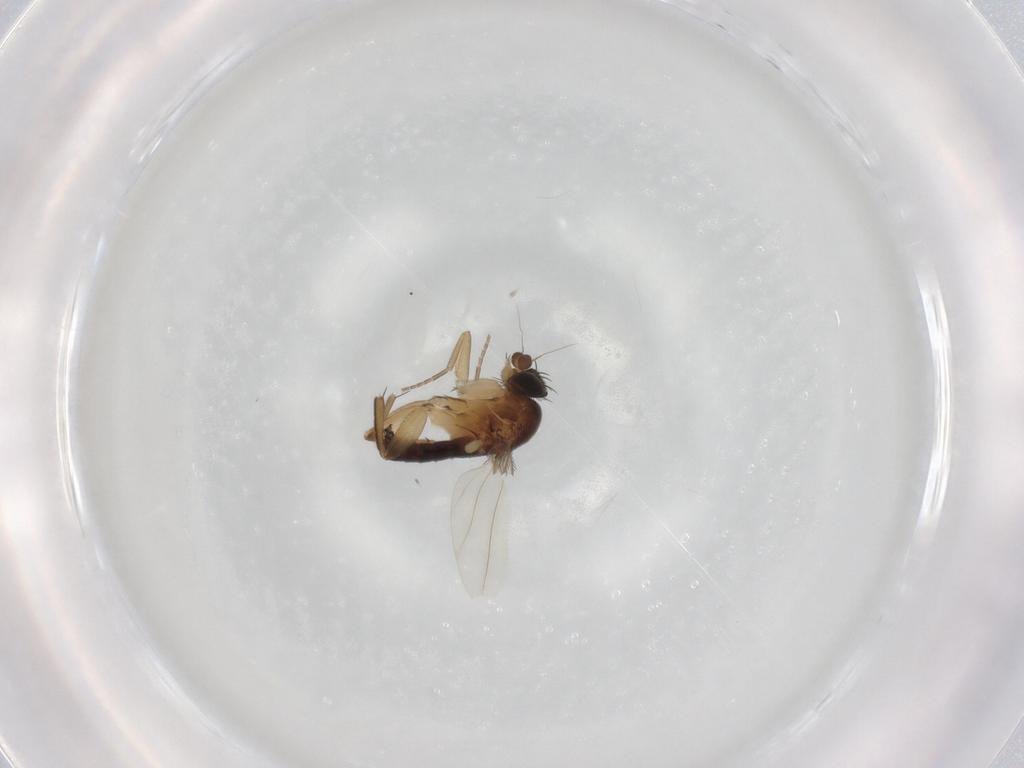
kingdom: Animalia
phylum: Arthropoda
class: Insecta
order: Diptera
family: Phoridae
